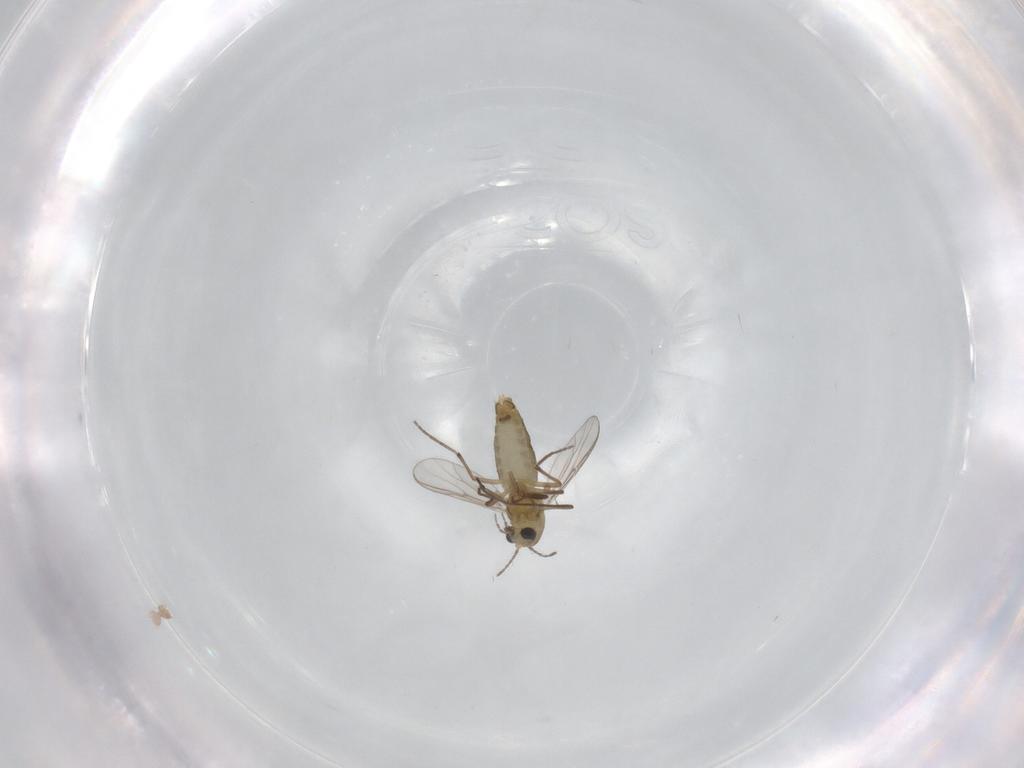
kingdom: Animalia
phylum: Arthropoda
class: Insecta
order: Diptera
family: Chironomidae
